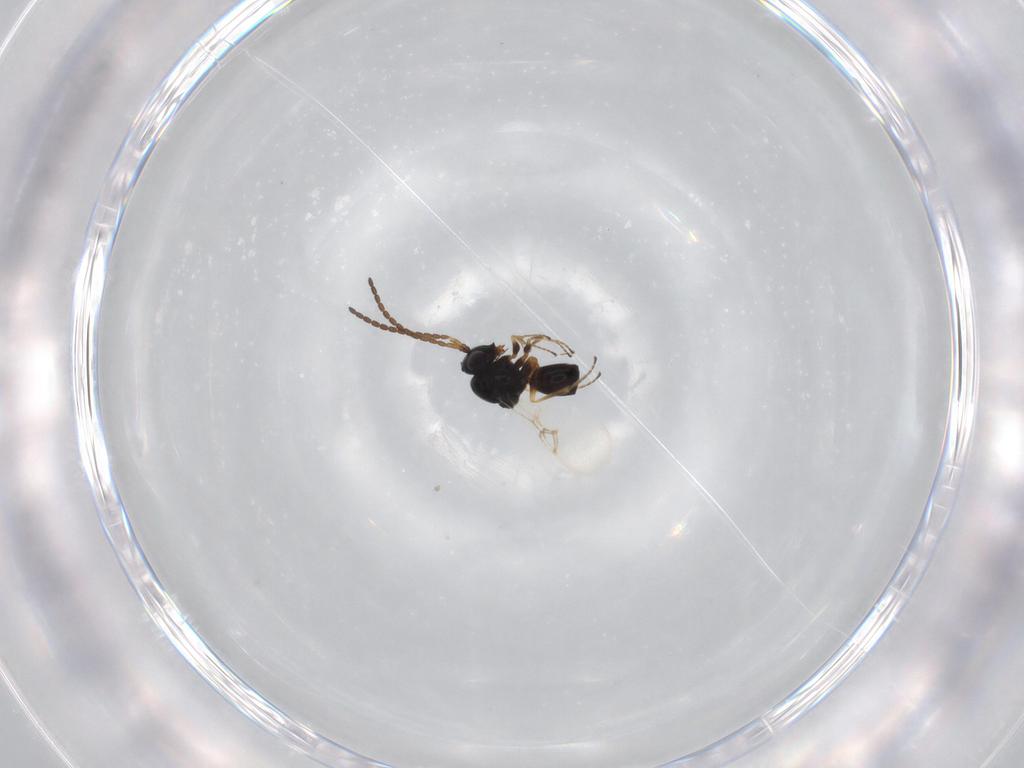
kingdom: Animalia
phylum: Arthropoda
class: Insecta
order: Hymenoptera
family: Figitidae
